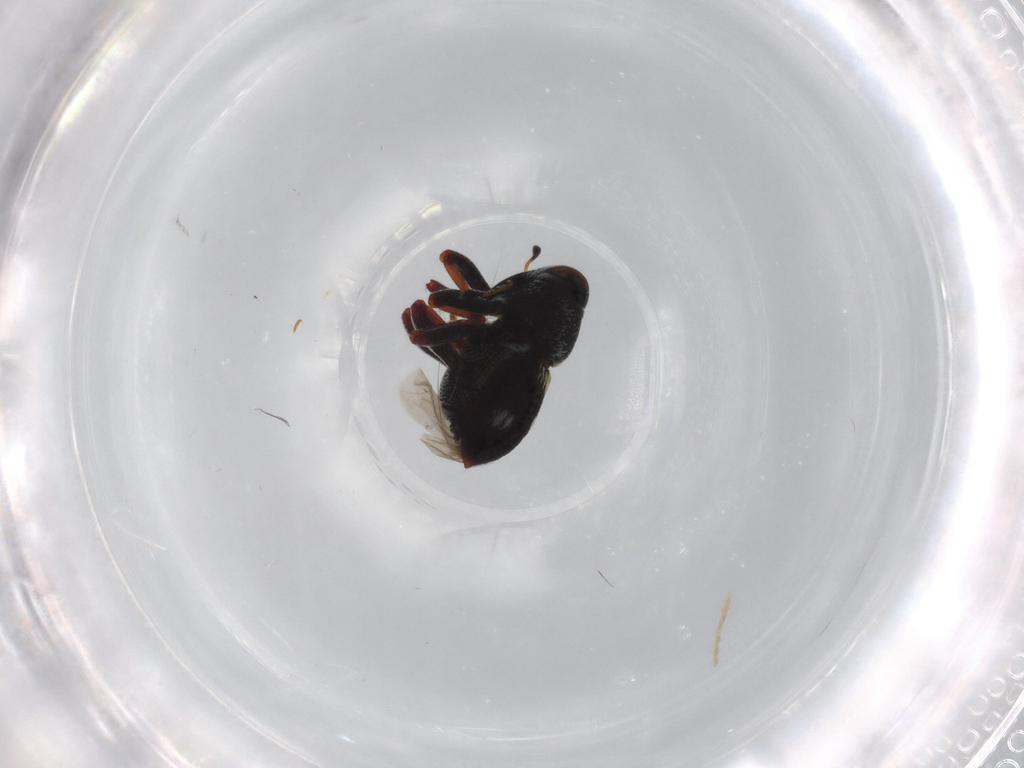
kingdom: Animalia
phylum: Arthropoda
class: Insecta
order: Coleoptera
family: Curculionidae
